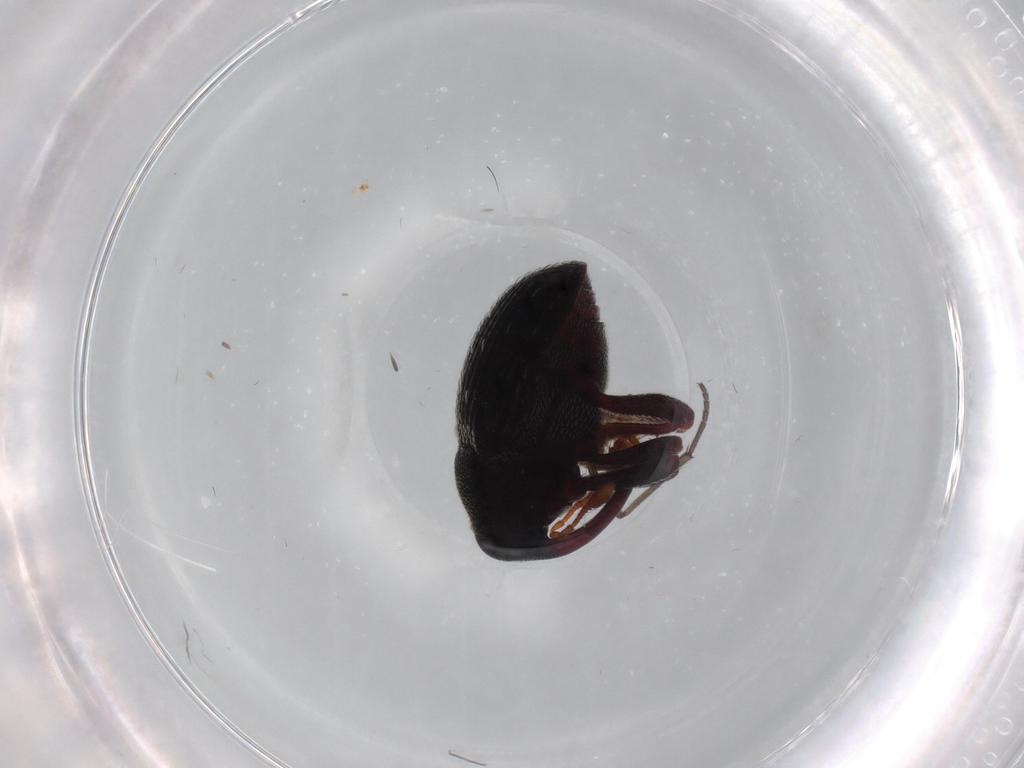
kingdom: Animalia
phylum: Arthropoda
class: Insecta
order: Coleoptera
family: Curculionidae
